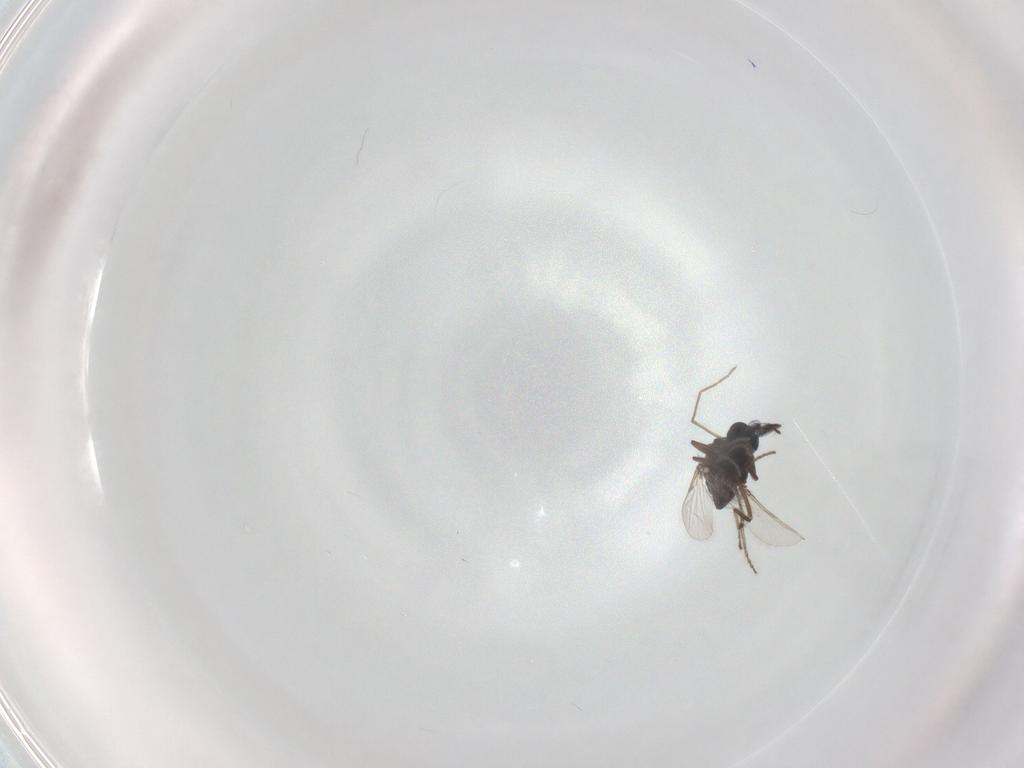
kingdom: Animalia
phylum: Arthropoda
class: Insecta
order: Diptera
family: Ceratopogonidae
